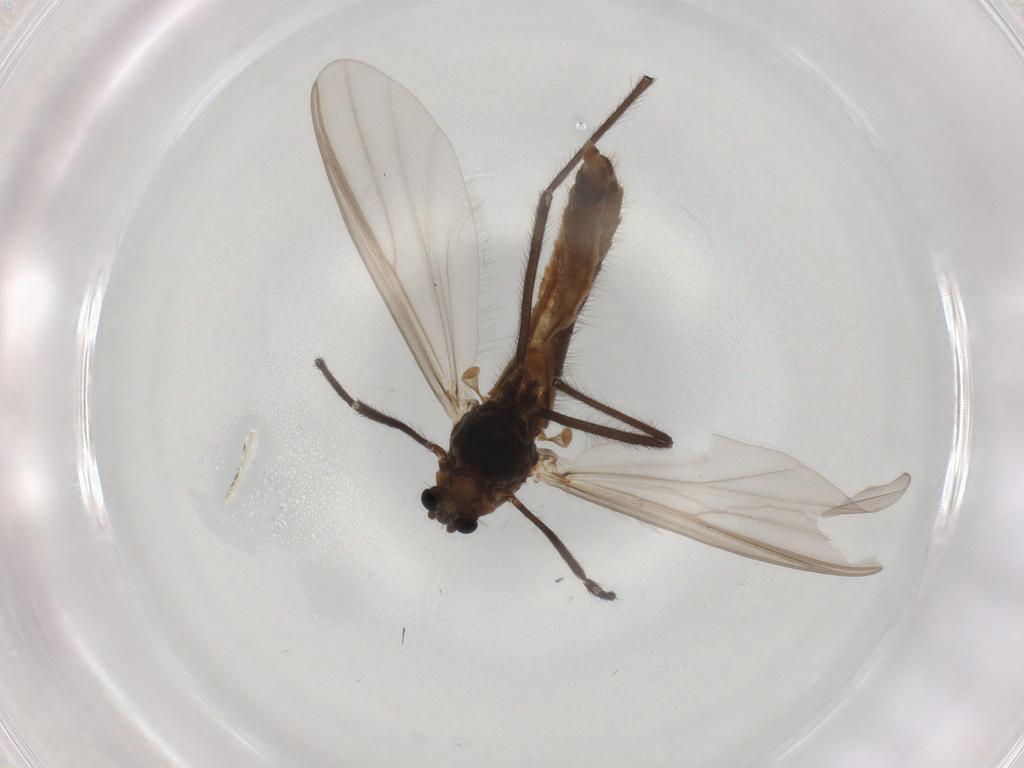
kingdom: Animalia
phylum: Arthropoda
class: Insecta
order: Diptera
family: Chironomidae
